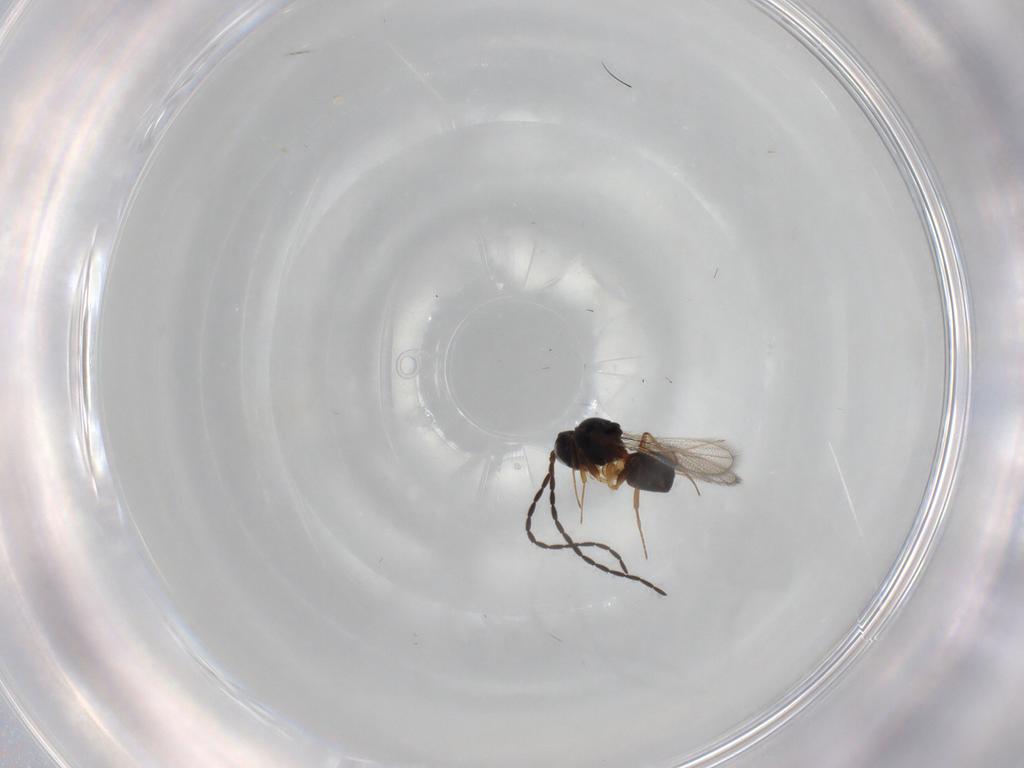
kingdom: Animalia
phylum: Arthropoda
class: Insecta
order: Hymenoptera
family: Figitidae
